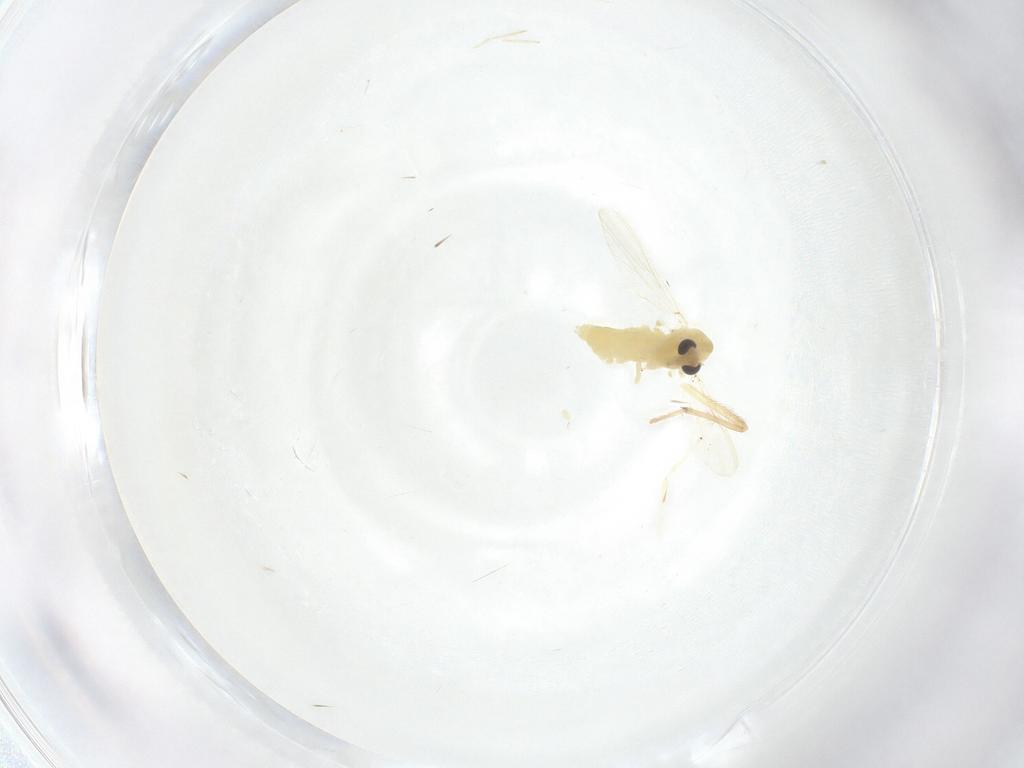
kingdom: Animalia
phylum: Arthropoda
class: Insecta
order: Diptera
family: Chironomidae
